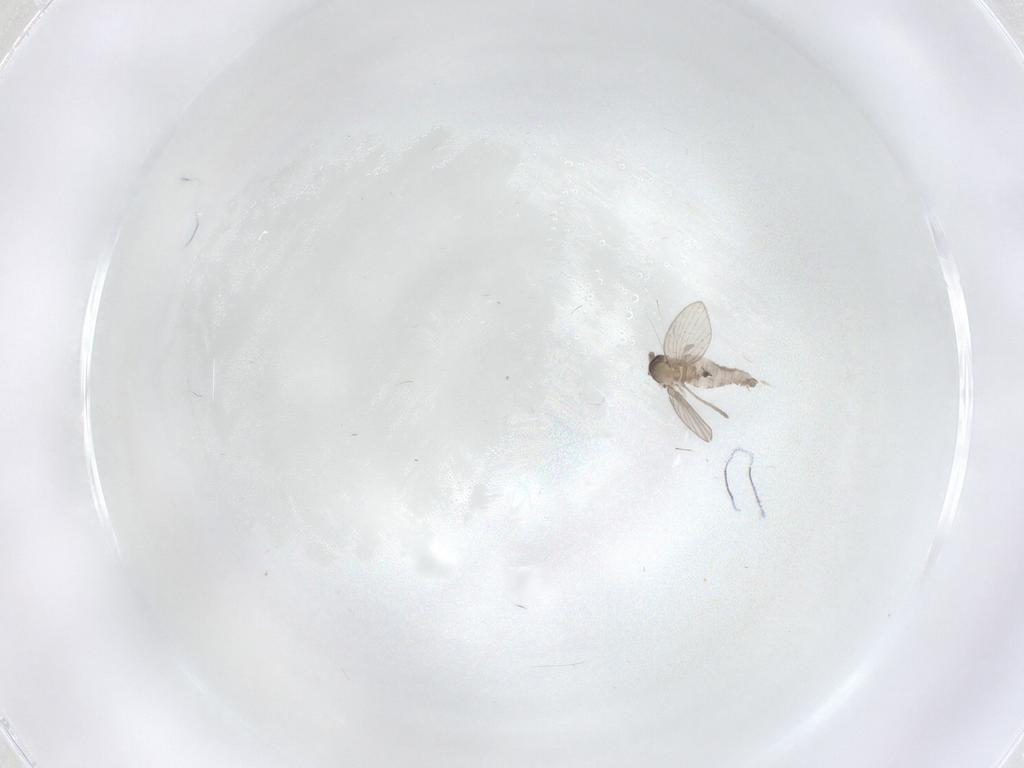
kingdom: Animalia
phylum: Arthropoda
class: Insecta
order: Diptera
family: Psychodidae
